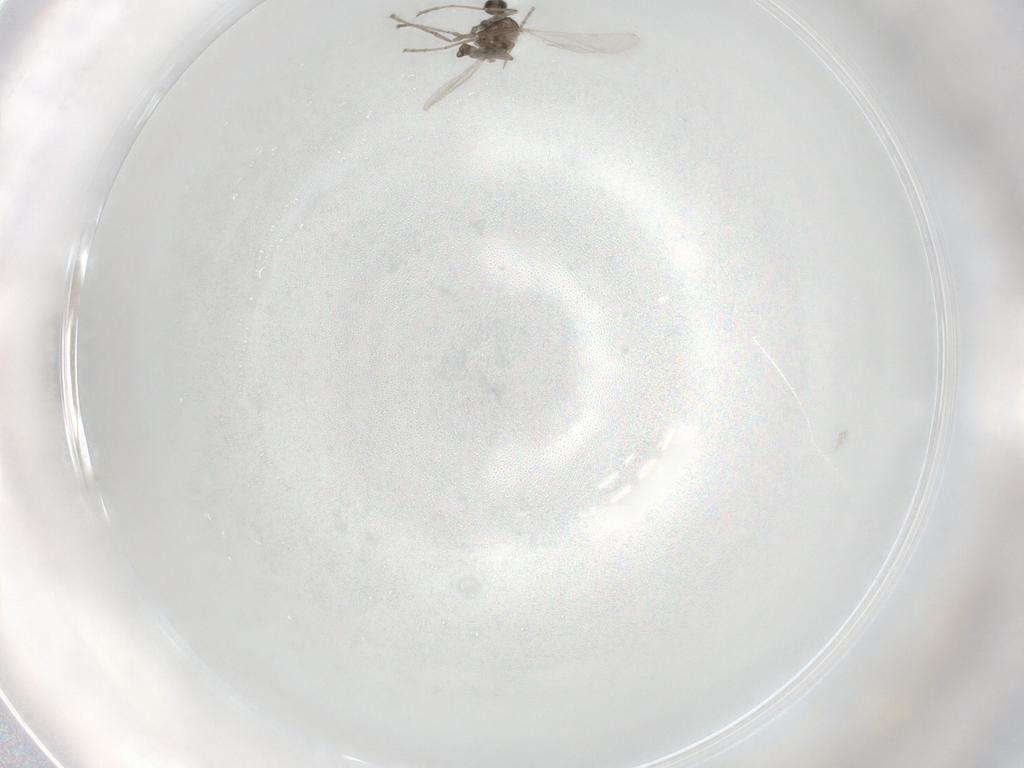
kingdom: Animalia
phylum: Arthropoda
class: Insecta
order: Diptera
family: Cecidomyiidae
